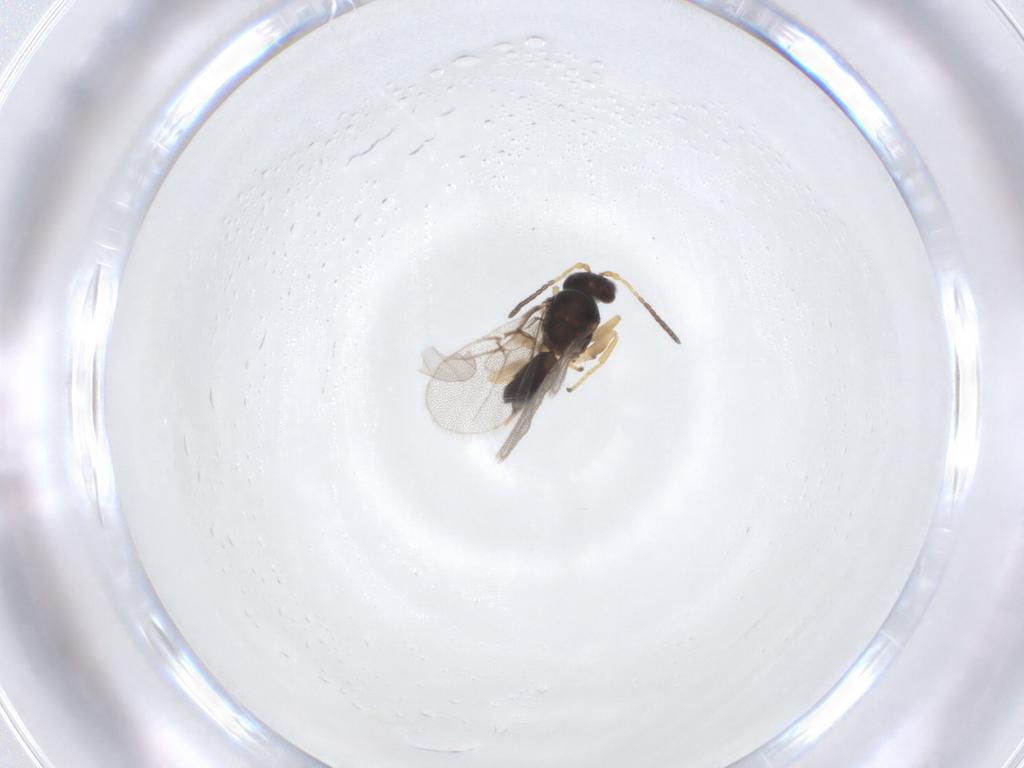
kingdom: Animalia
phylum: Arthropoda
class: Insecta
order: Hymenoptera
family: Cynipidae
